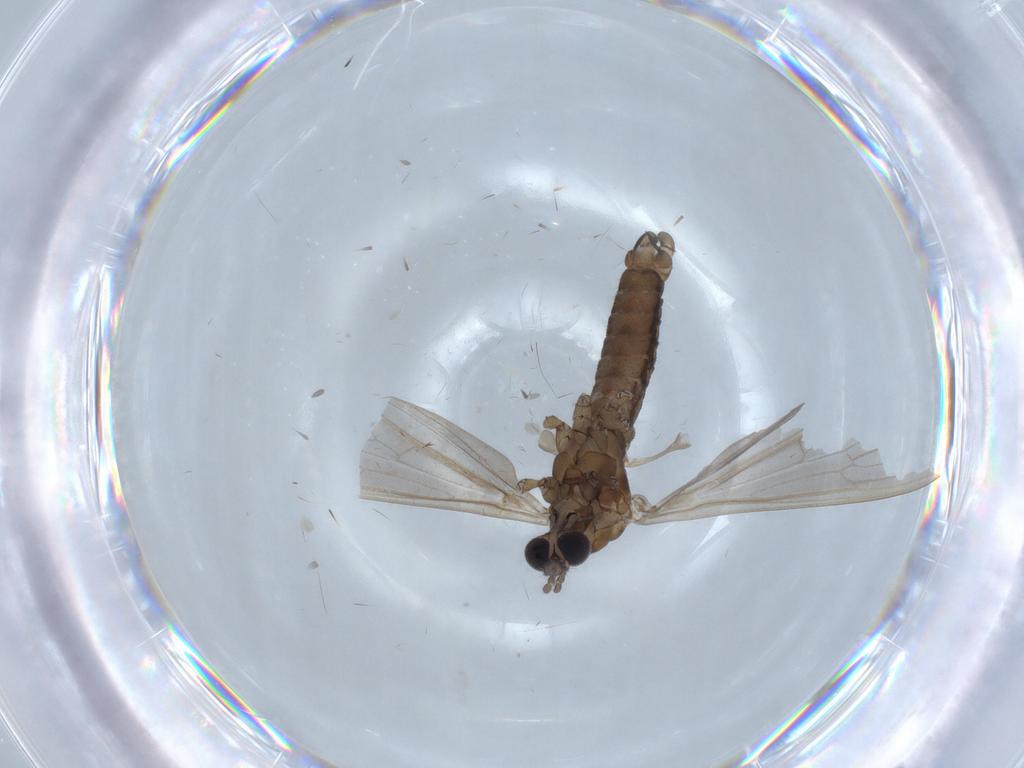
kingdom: Animalia
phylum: Arthropoda
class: Insecta
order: Diptera
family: Limoniidae
